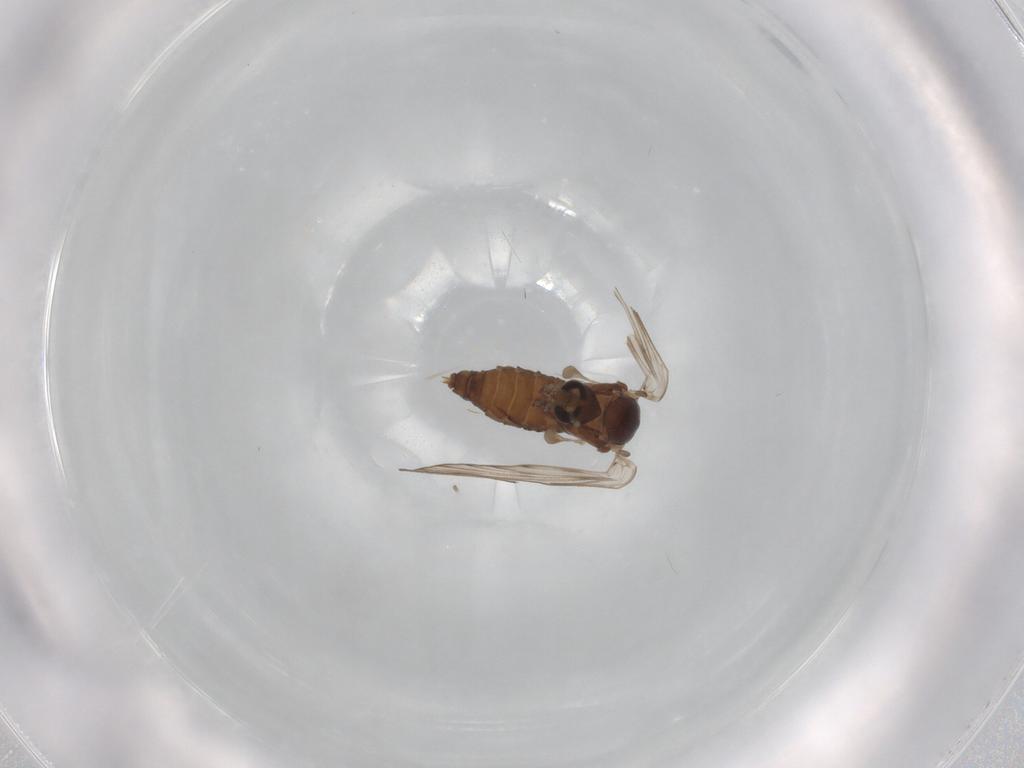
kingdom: Animalia
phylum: Arthropoda
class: Insecta
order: Diptera
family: Psychodidae
